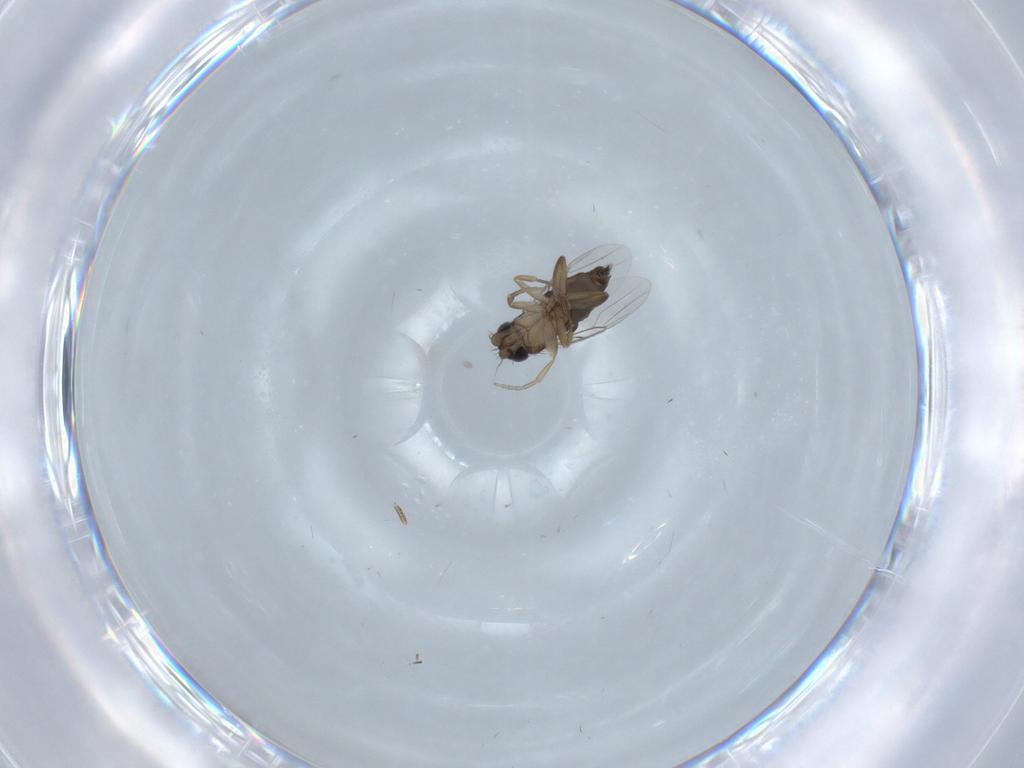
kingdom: Animalia
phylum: Arthropoda
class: Insecta
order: Diptera
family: Phoridae
